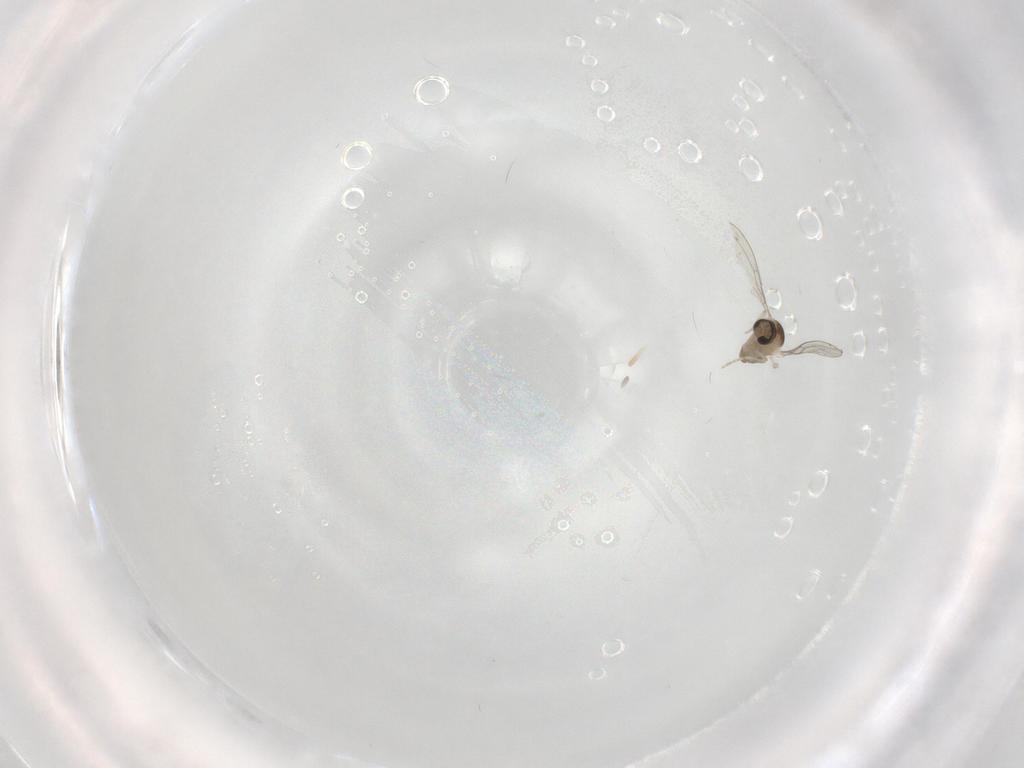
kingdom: Animalia
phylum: Arthropoda
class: Insecta
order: Diptera
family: Cecidomyiidae
